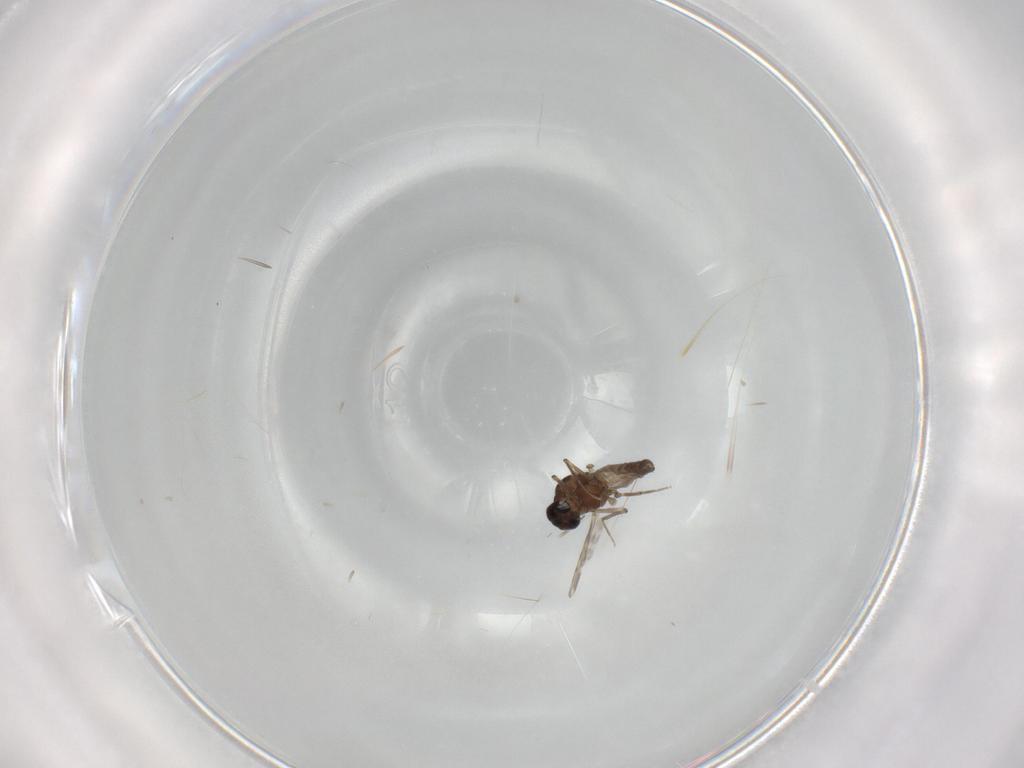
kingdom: Animalia
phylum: Arthropoda
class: Insecta
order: Diptera
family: Ceratopogonidae
